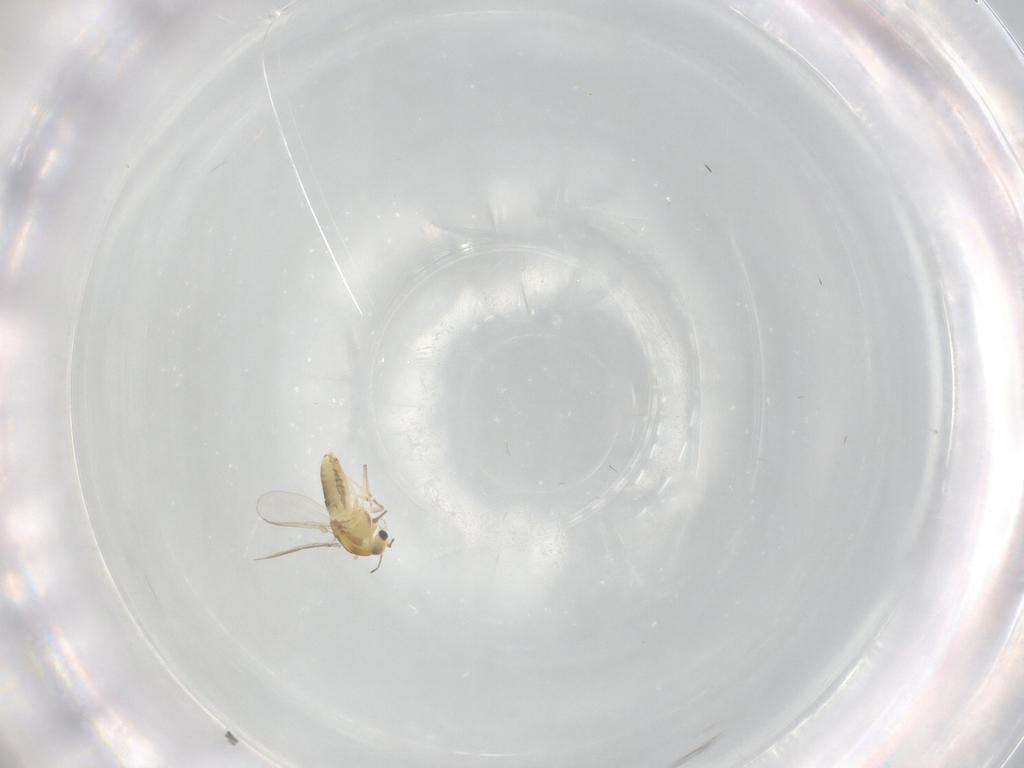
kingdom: Animalia
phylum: Arthropoda
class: Insecta
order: Diptera
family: Chironomidae
